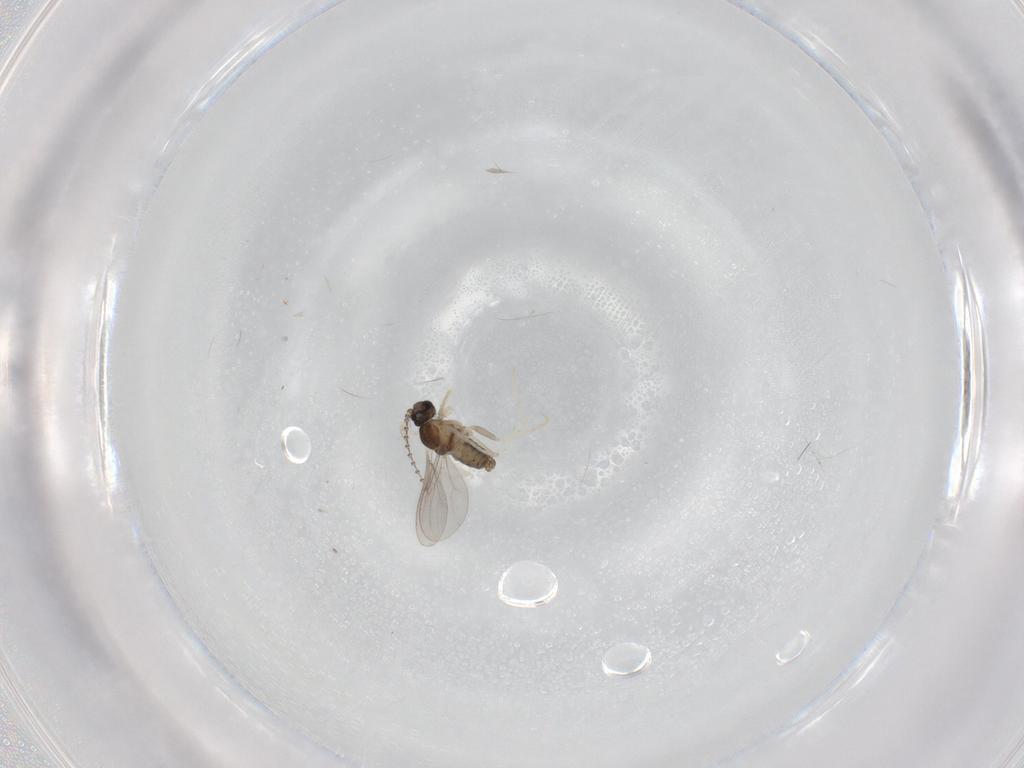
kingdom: Animalia
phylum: Arthropoda
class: Insecta
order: Diptera
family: Cecidomyiidae
